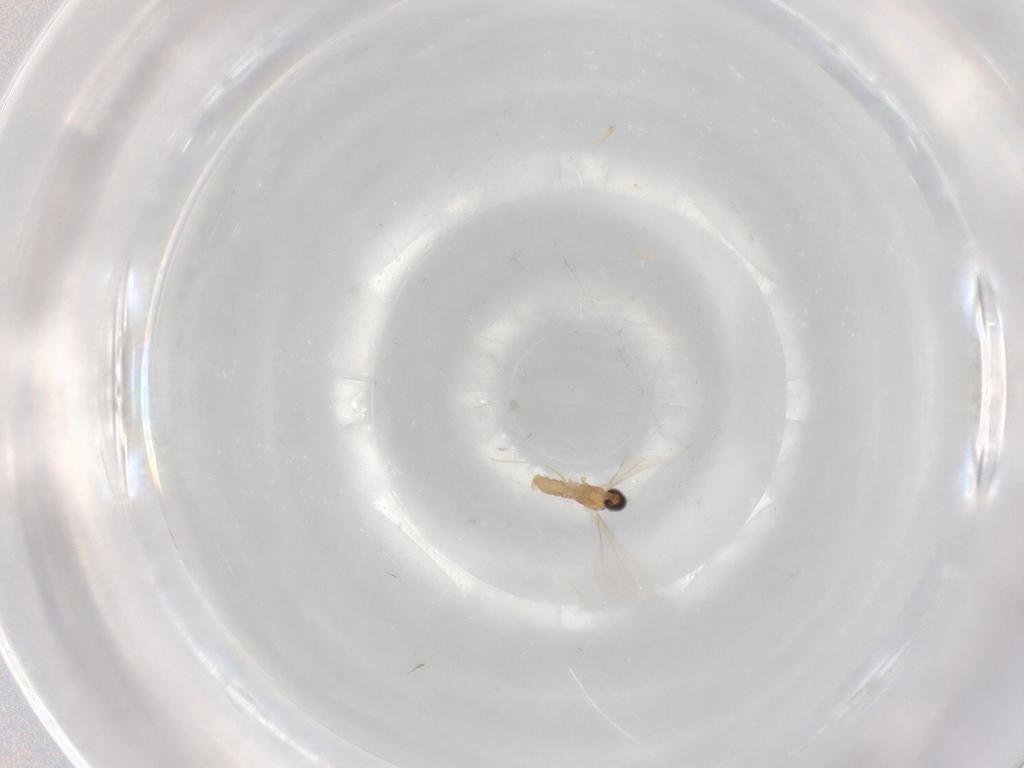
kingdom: Animalia
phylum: Arthropoda
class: Insecta
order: Diptera
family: Cecidomyiidae
